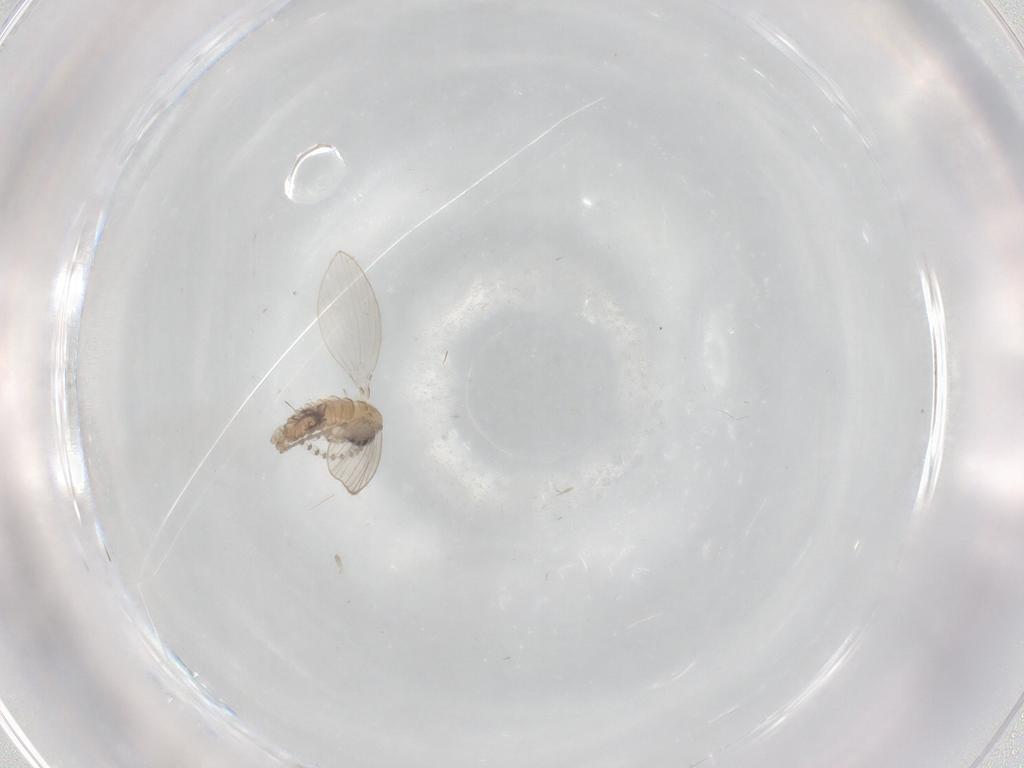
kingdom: Animalia
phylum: Arthropoda
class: Insecta
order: Diptera
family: Psychodidae
